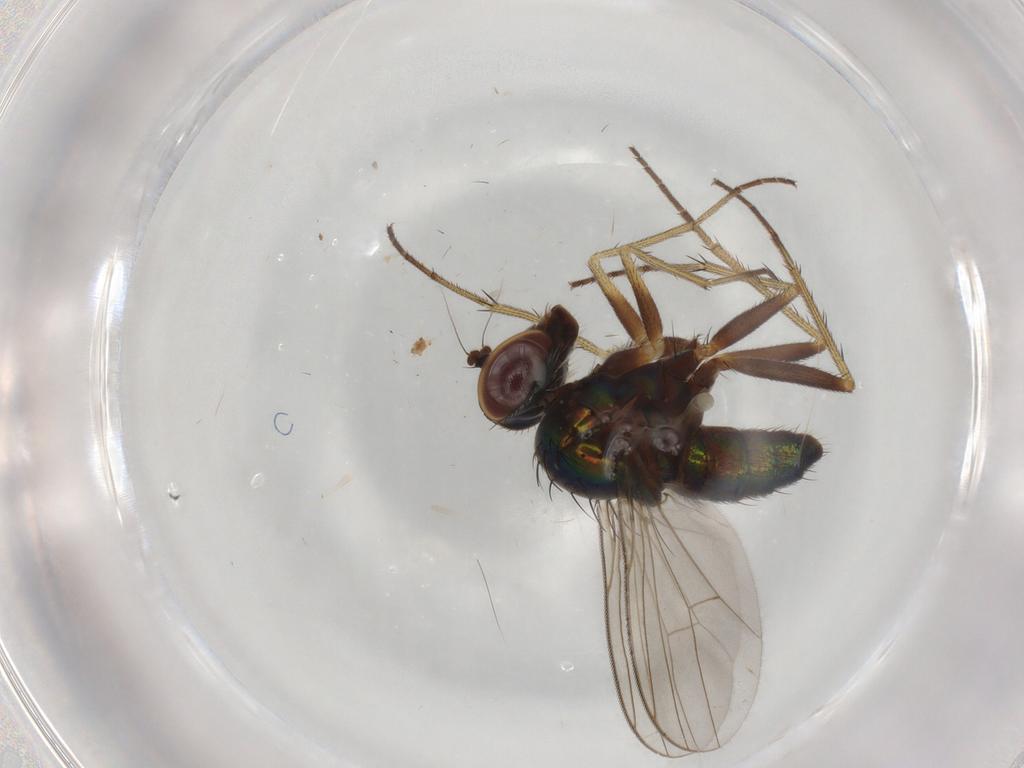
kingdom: Animalia
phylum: Arthropoda
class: Insecta
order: Diptera
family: Dolichopodidae
